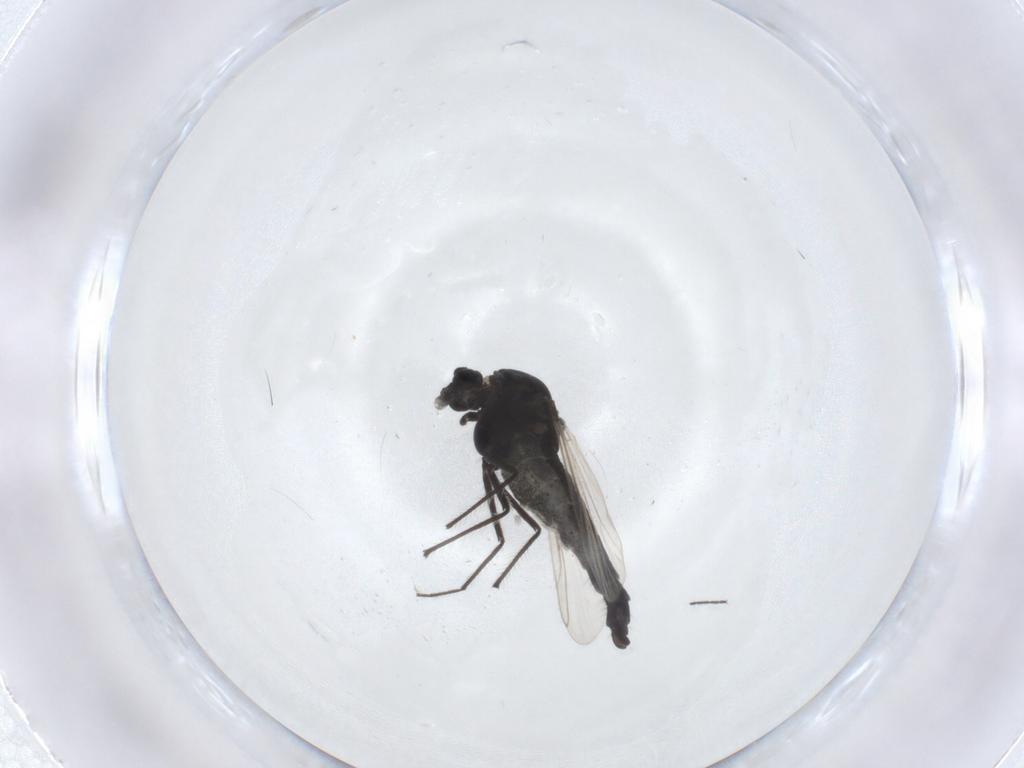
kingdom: Animalia
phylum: Arthropoda
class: Insecta
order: Diptera
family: Chironomidae
